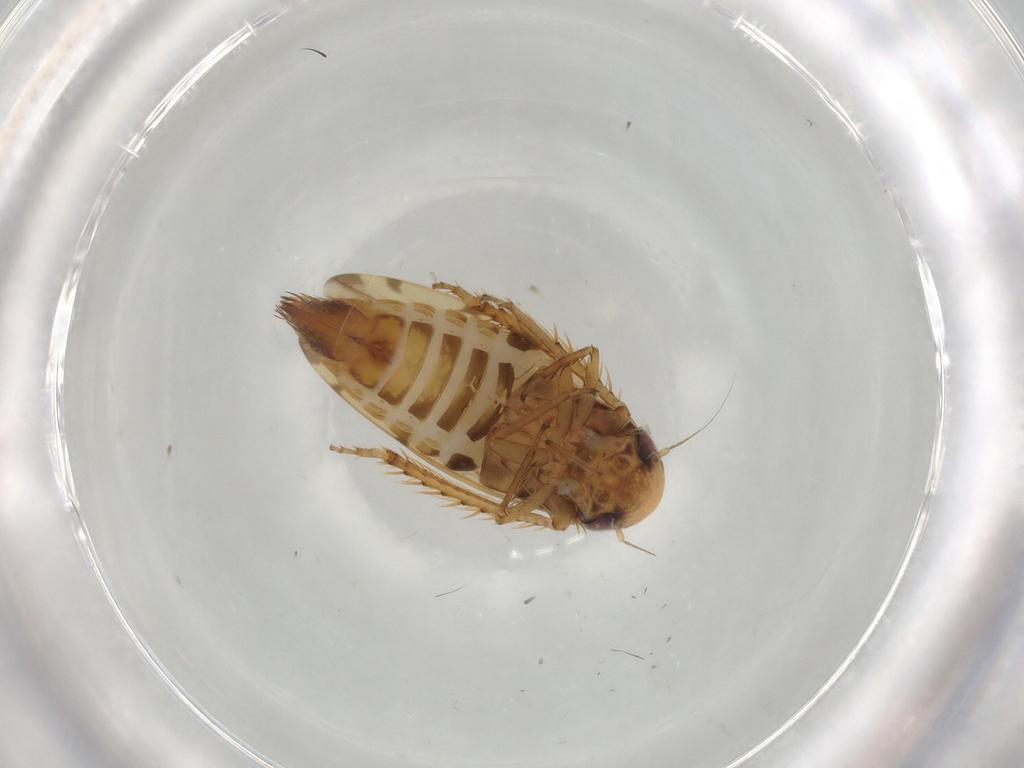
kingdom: Animalia
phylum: Arthropoda
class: Insecta
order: Hemiptera
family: Cicadellidae
